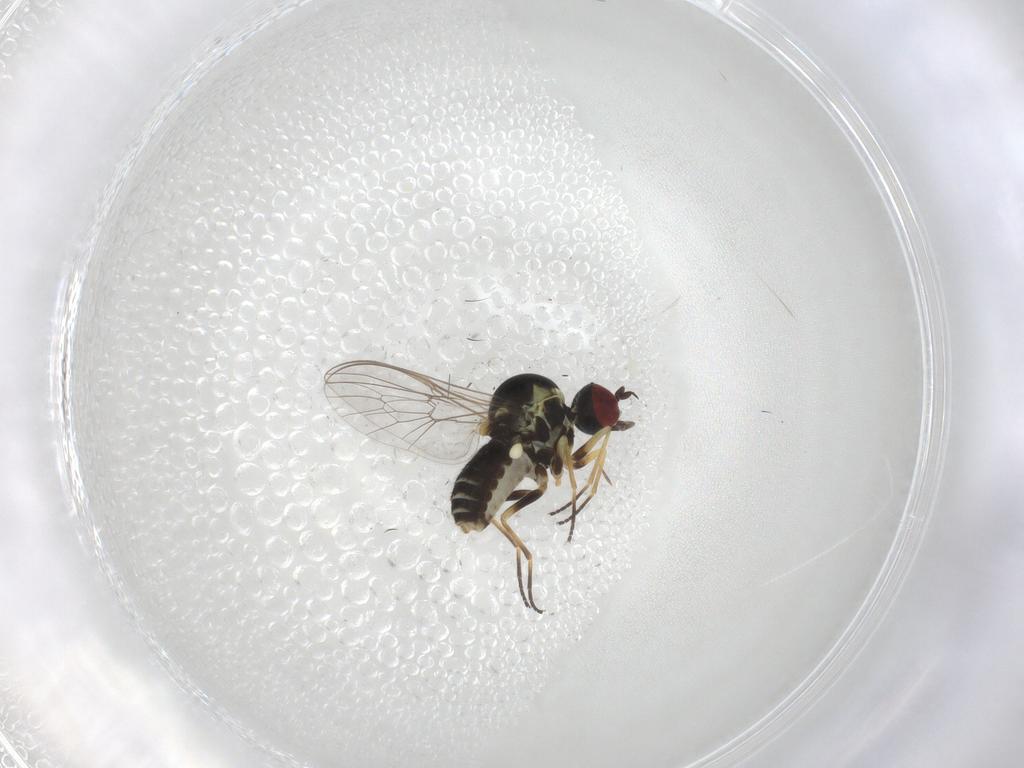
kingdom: Animalia
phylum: Arthropoda
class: Insecta
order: Diptera
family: Bombyliidae
